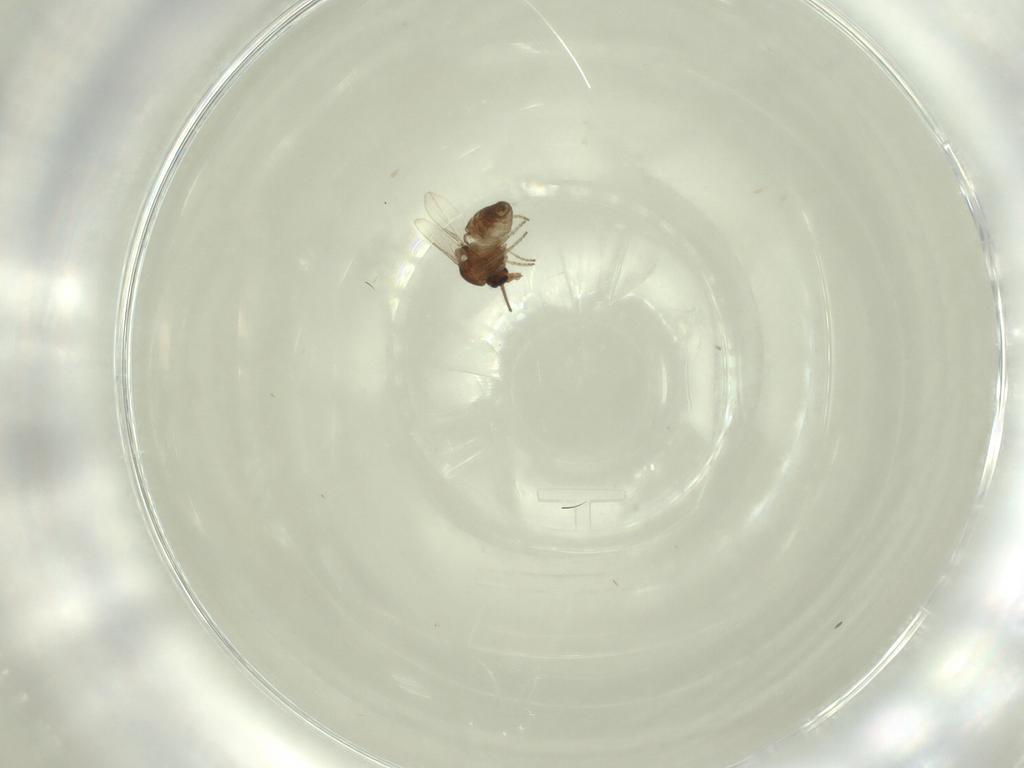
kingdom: Animalia
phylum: Arthropoda
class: Insecta
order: Diptera
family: Ceratopogonidae
